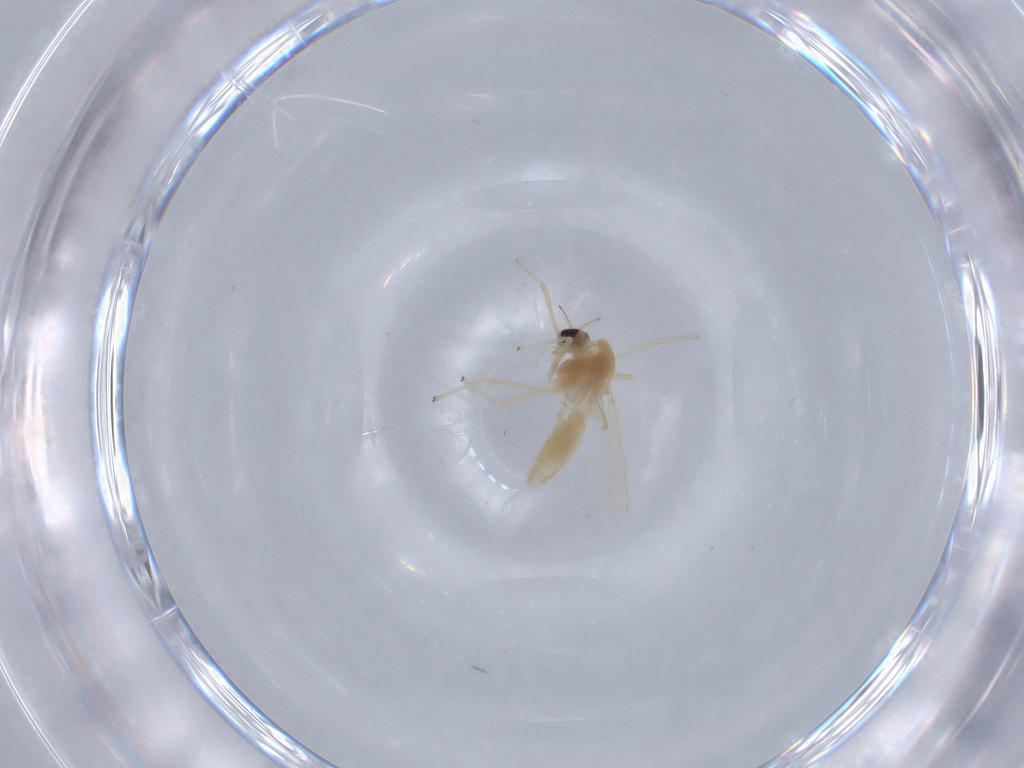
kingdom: Animalia
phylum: Arthropoda
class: Insecta
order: Diptera
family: Chironomidae
